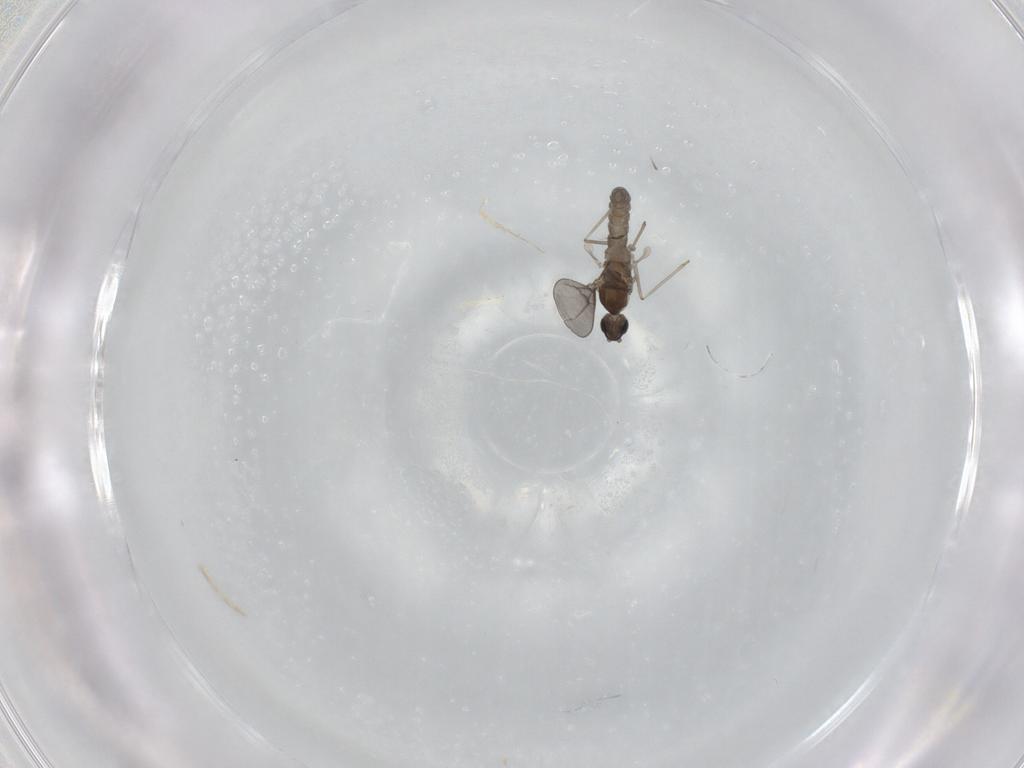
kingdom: Animalia
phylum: Arthropoda
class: Insecta
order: Diptera
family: Cecidomyiidae
